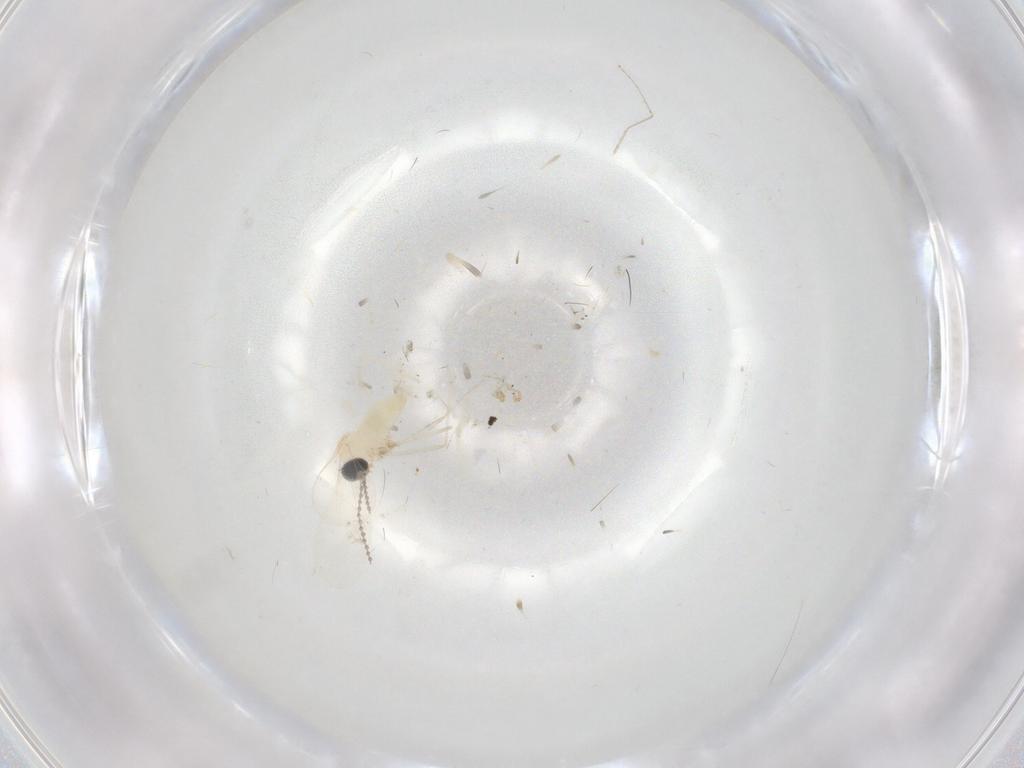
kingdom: Animalia
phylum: Arthropoda
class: Insecta
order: Diptera
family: Cecidomyiidae
